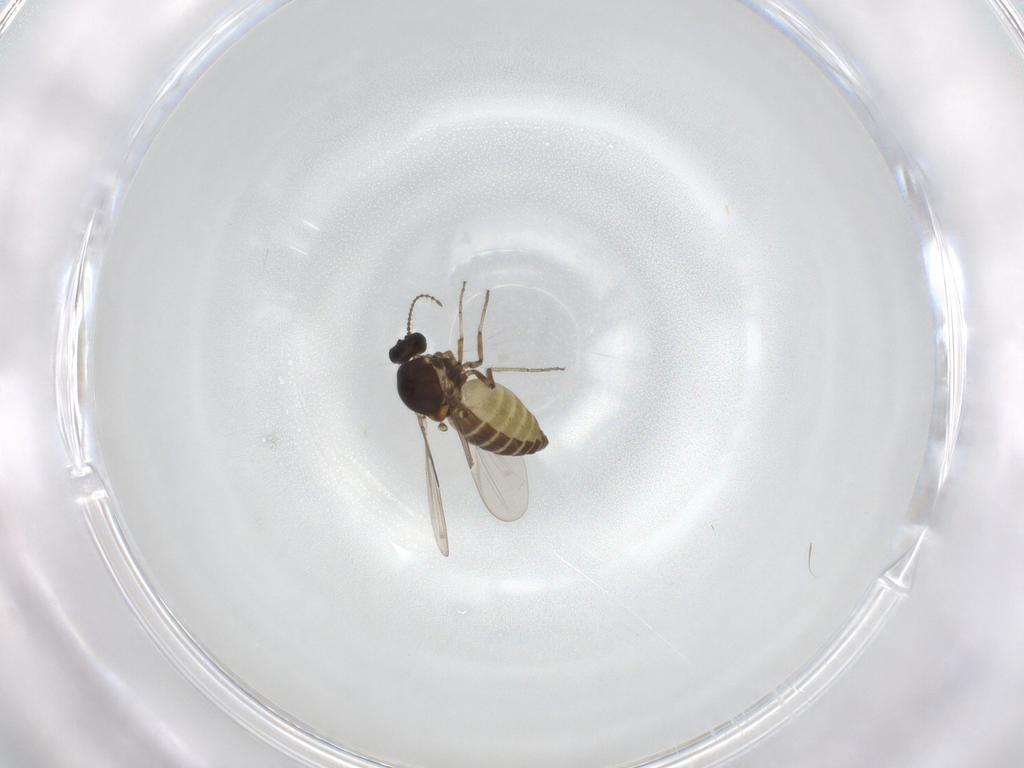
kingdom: Animalia
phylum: Arthropoda
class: Insecta
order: Diptera
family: Ceratopogonidae
